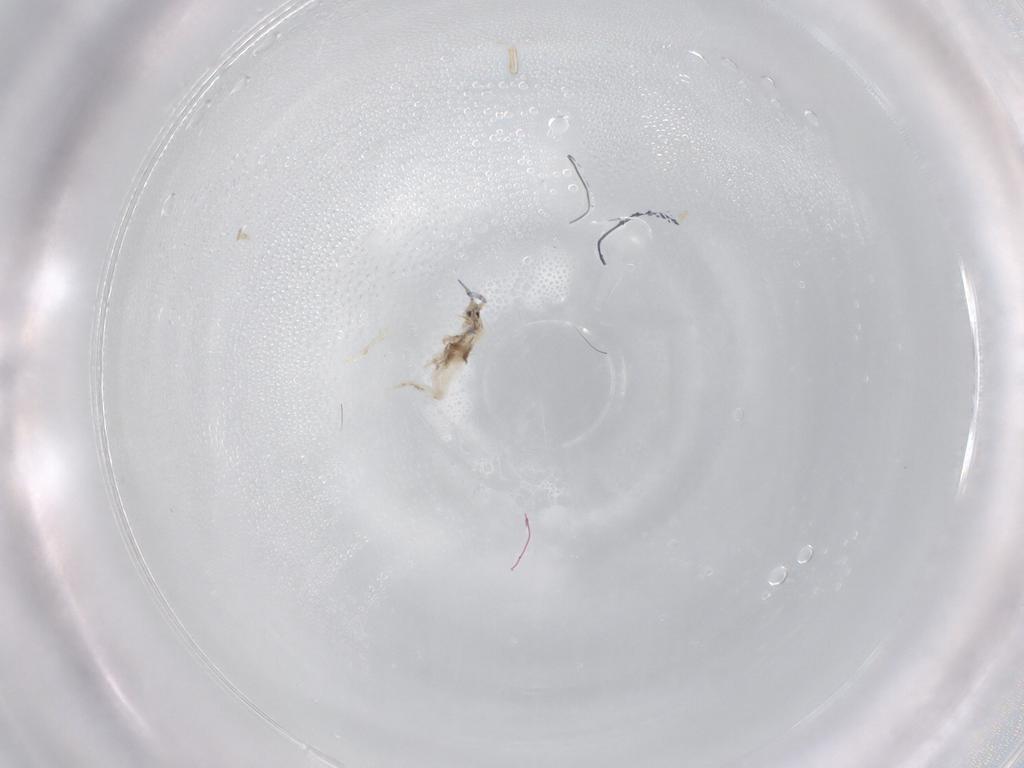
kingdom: Animalia
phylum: Arthropoda
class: Collembola
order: Entomobryomorpha
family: Entomobryidae
